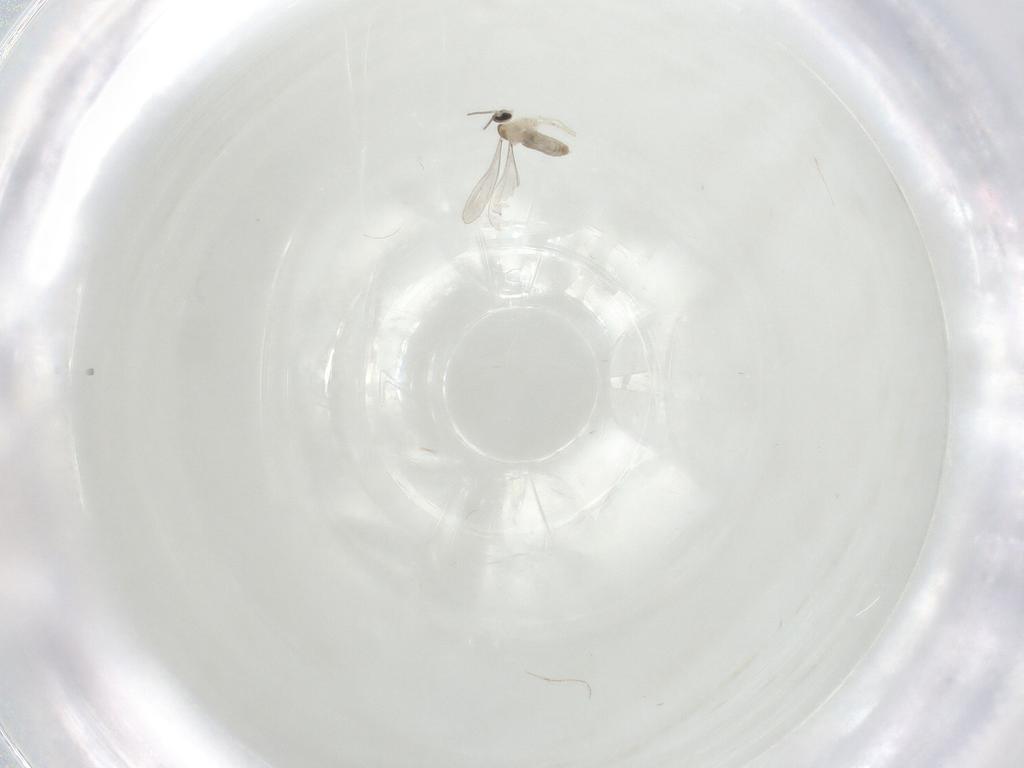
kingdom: Animalia
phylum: Arthropoda
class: Insecta
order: Diptera
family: Cecidomyiidae
